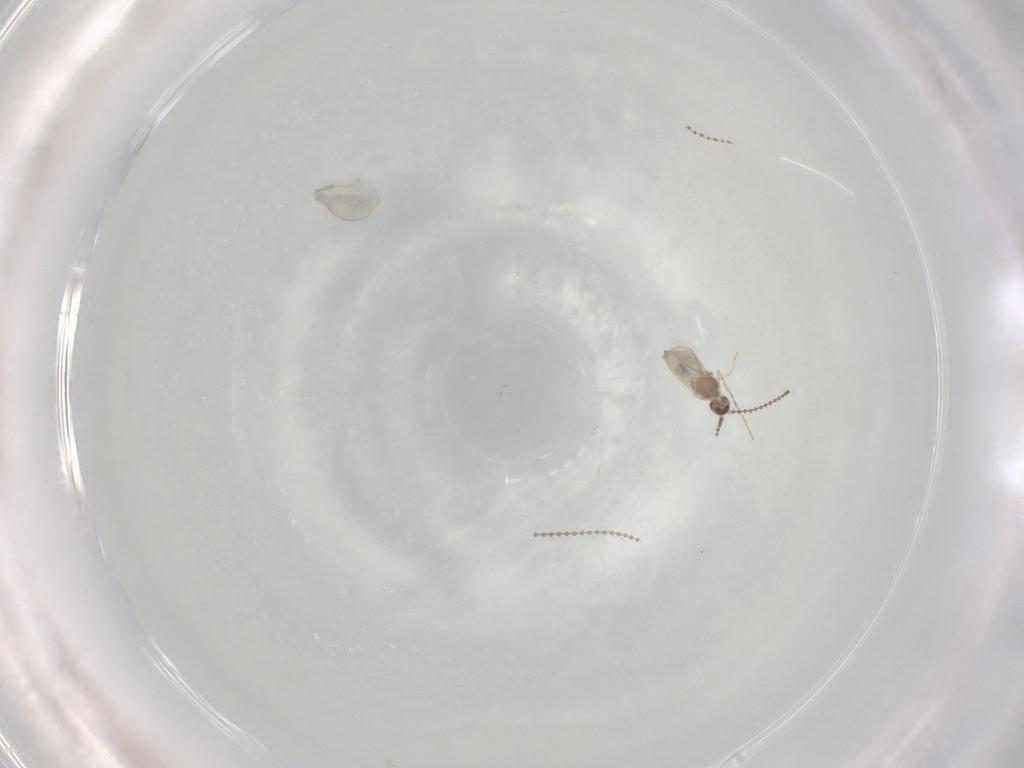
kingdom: Animalia
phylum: Arthropoda
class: Insecta
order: Diptera
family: Cecidomyiidae
